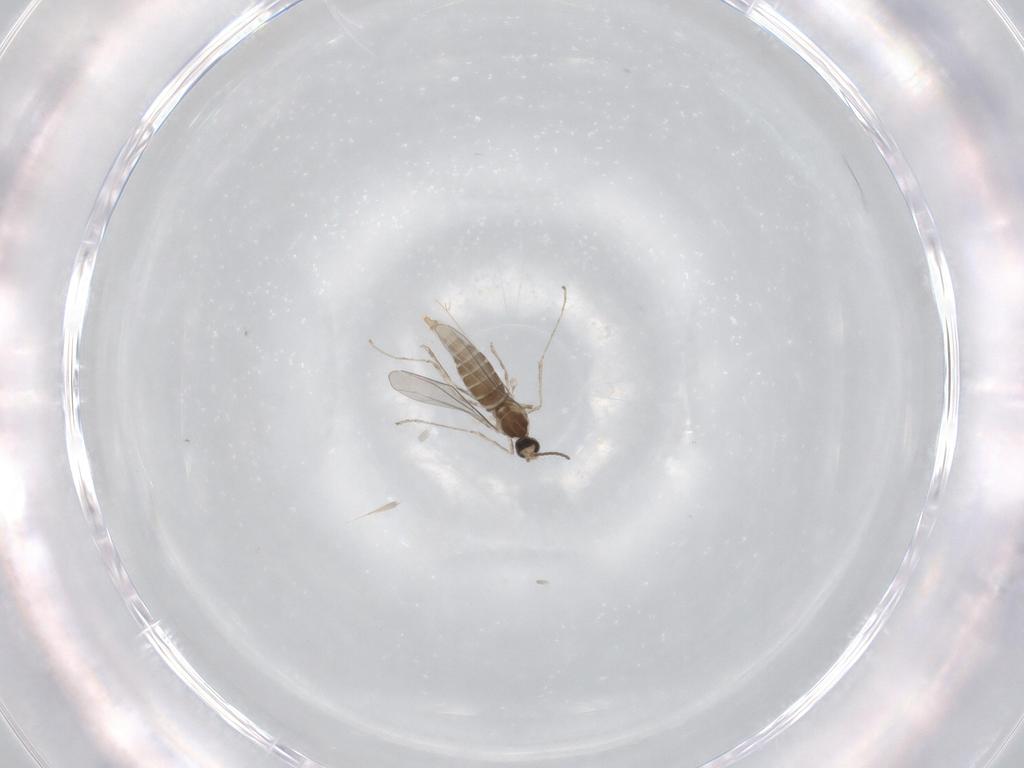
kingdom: Animalia
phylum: Arthropoda
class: Insecta
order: Diptera
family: Cecidomyiidae
